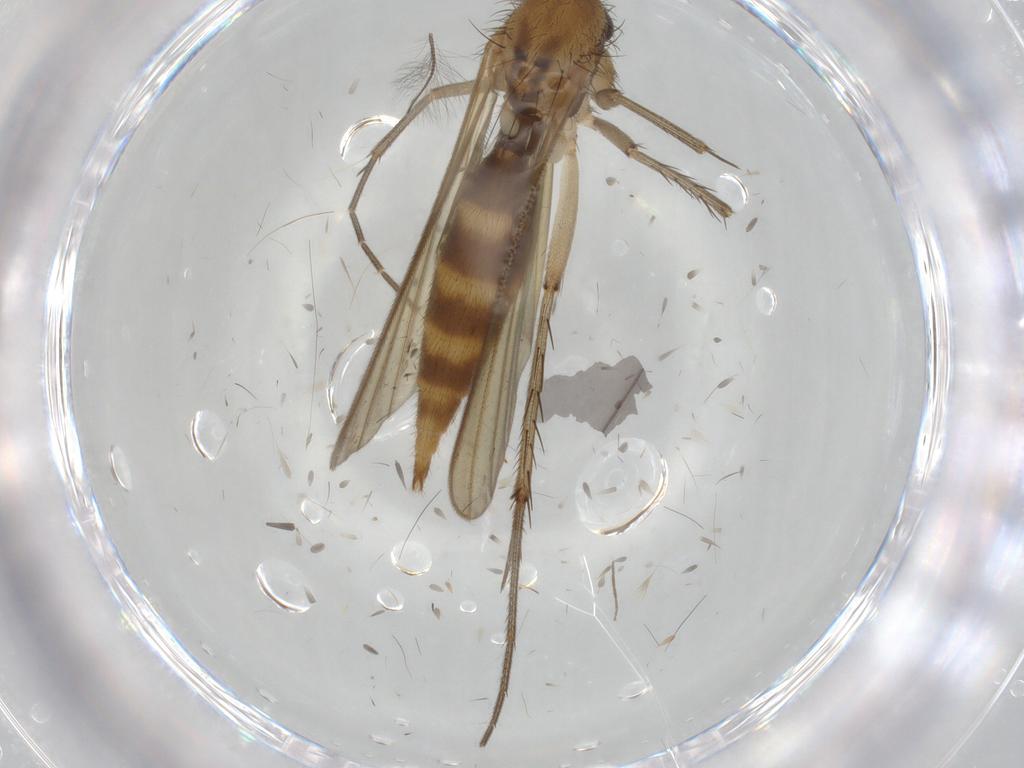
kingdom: Animalia
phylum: Arthropoda
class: Insecta
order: Diptera
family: Mycetophilidae
